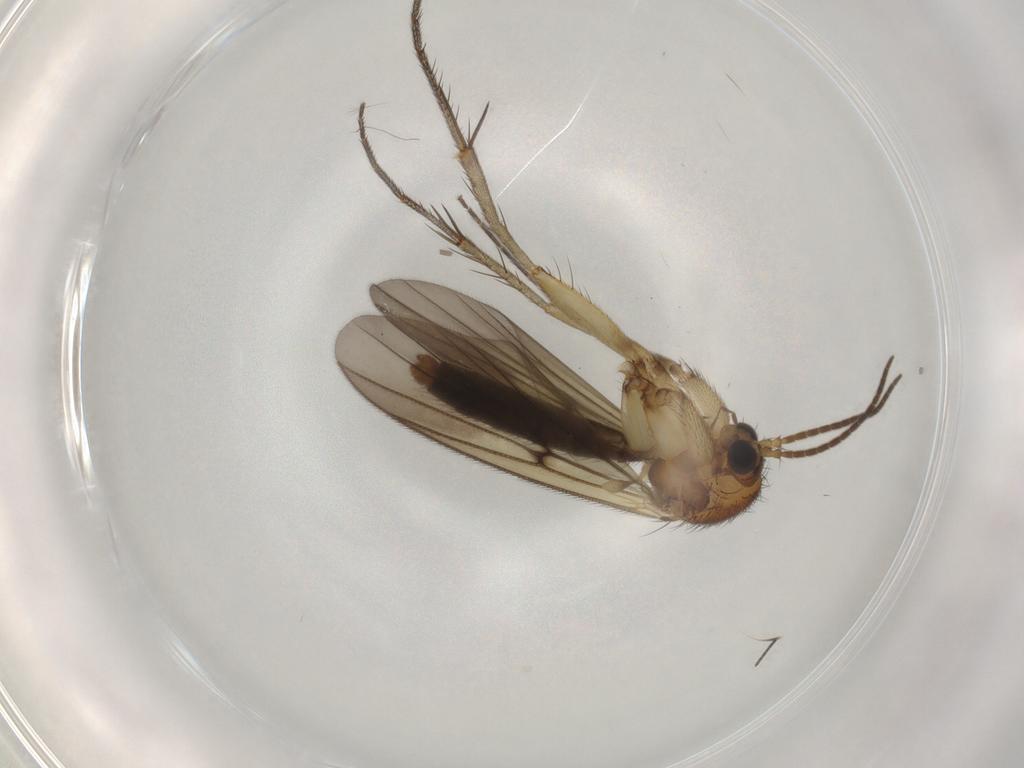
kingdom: Animalia
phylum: Arthropoda
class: Insecta
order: Diptera
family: Mycetophilidae
